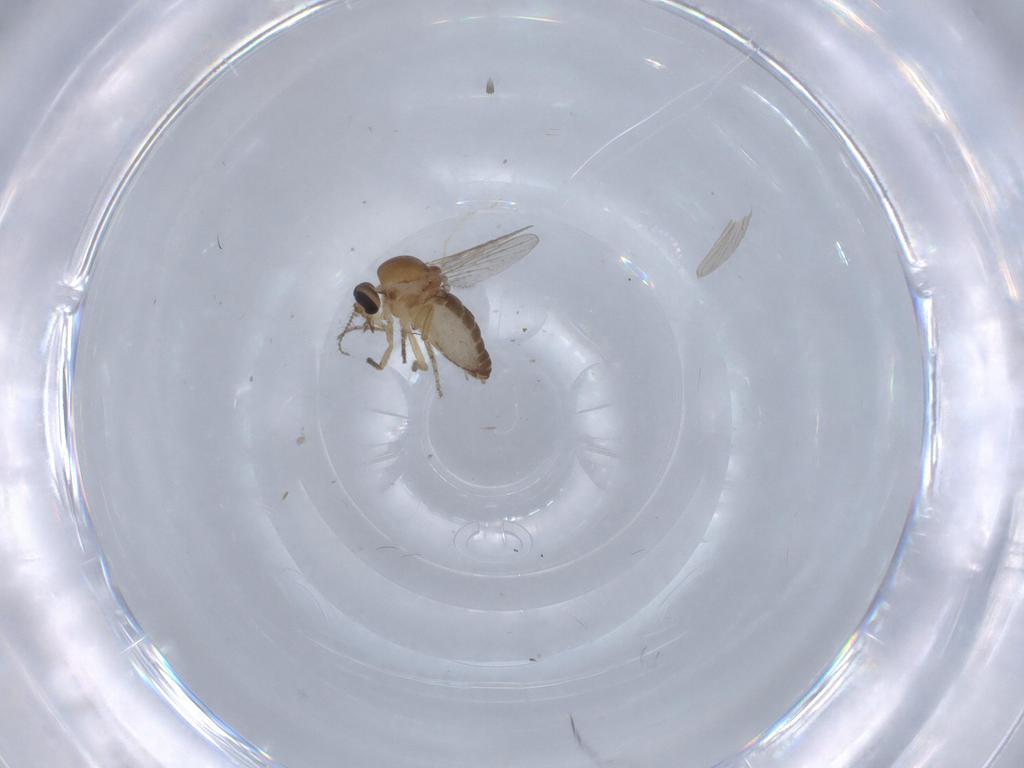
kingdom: Animalia
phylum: Arthropoda
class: Insecta
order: Diptera
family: Ceratopogonidae
